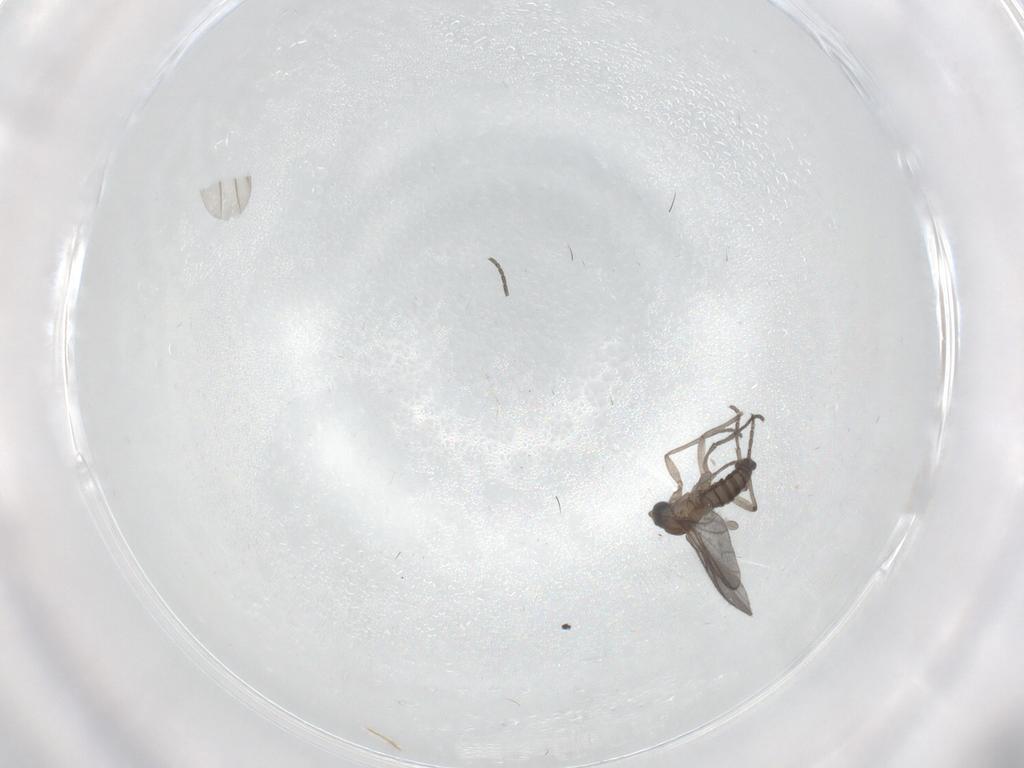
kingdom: Animalia
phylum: Arthropoda
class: Insecta
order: Diptera
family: Sciaridae
